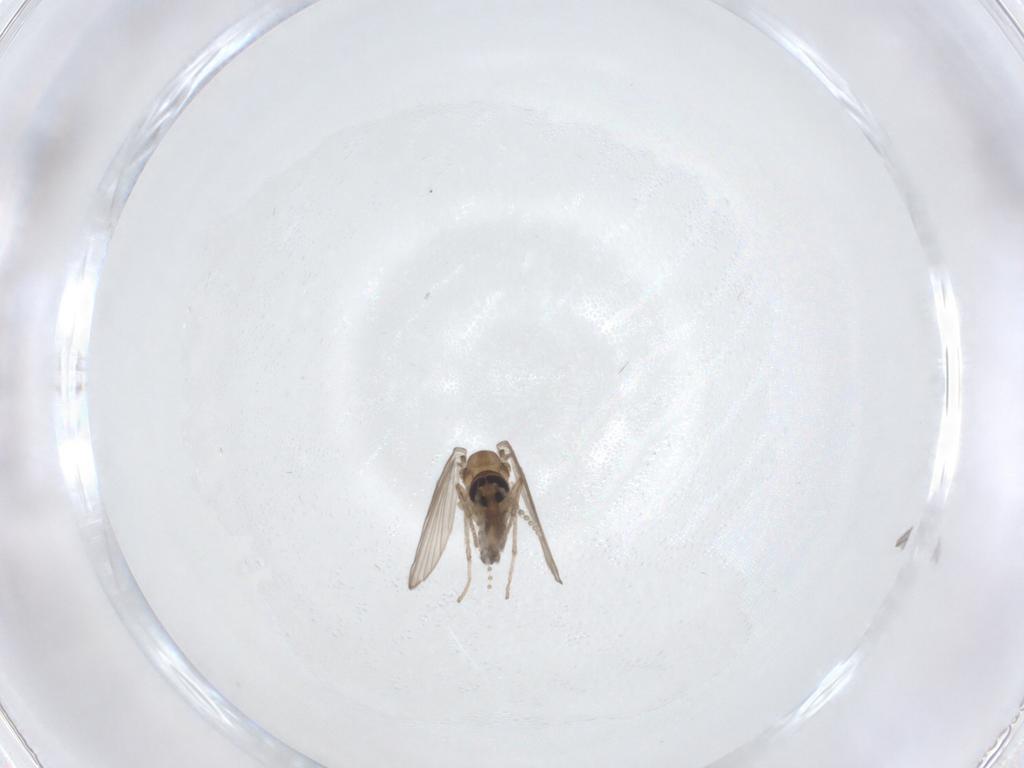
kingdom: Animalia
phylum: Arthropoda
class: Insecta
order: Diptera
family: Psychodidae
